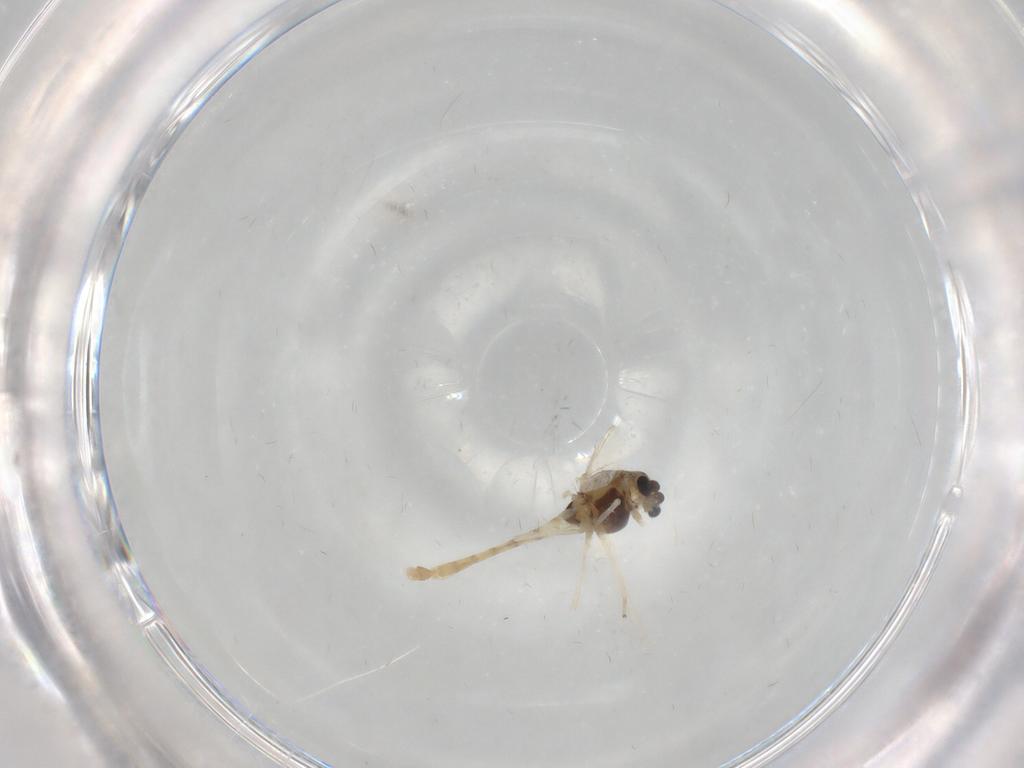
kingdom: Animalia
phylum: Arthropoda
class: Insecta
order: Diptera
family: Chironomidae
